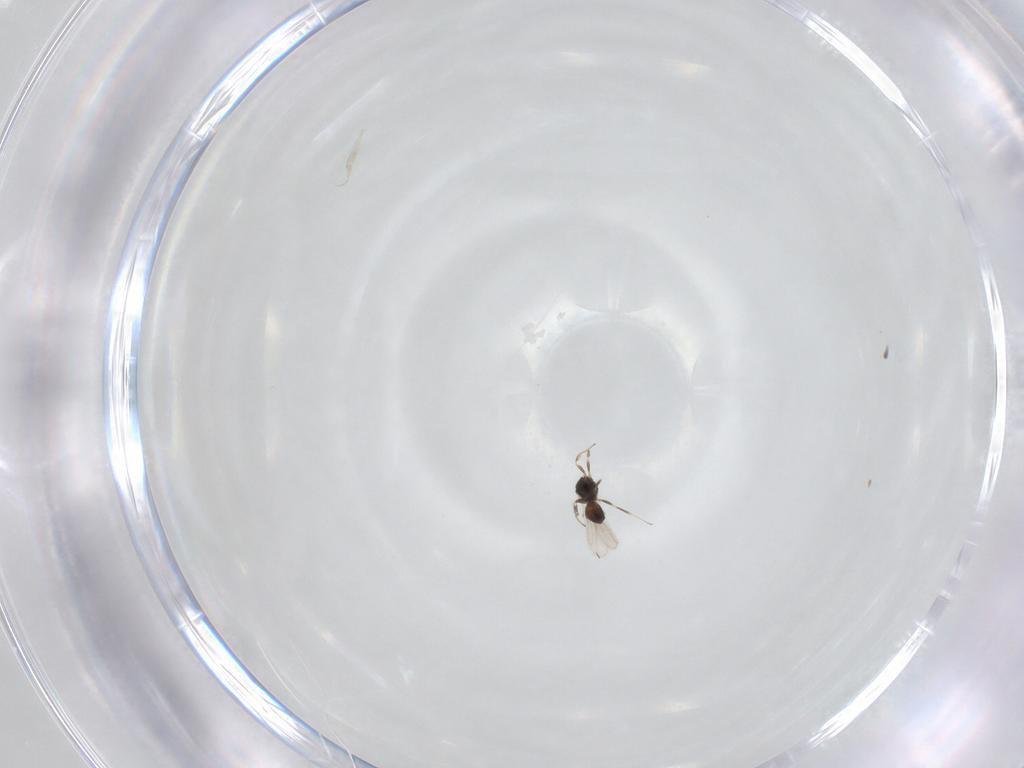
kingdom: Animalia
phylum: Arthropoda
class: Insecta
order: Hymenoptera
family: Scelionidae
